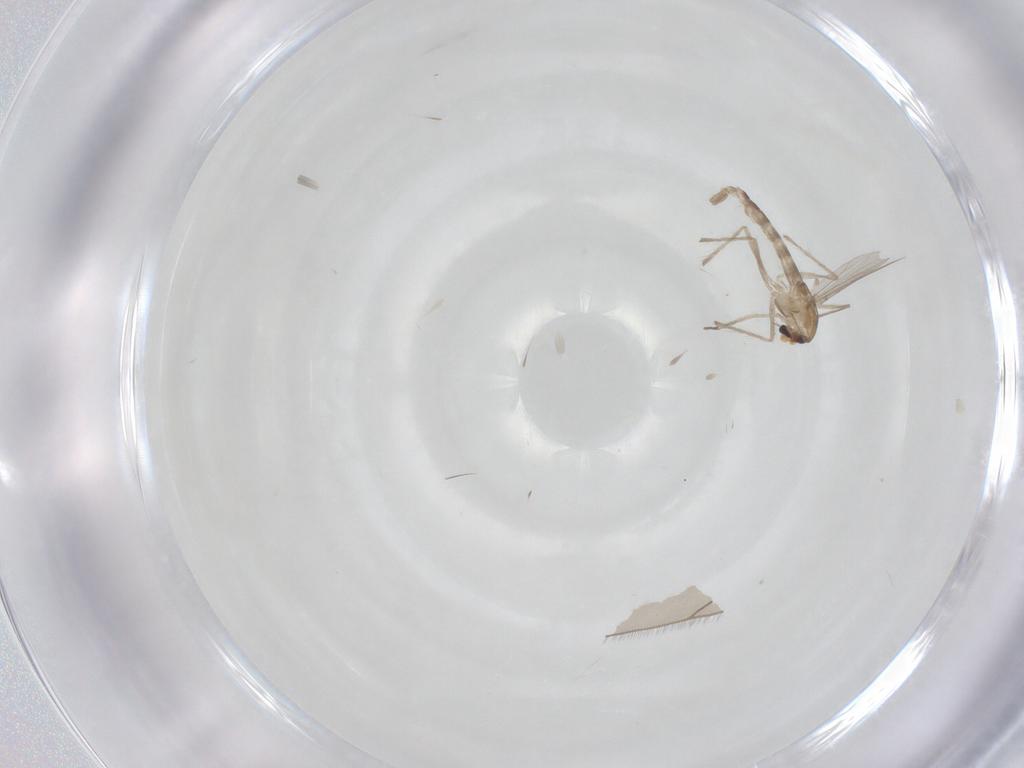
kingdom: Animalia
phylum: Arthropoda
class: Insecta
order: Diptera
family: Chironomidae
